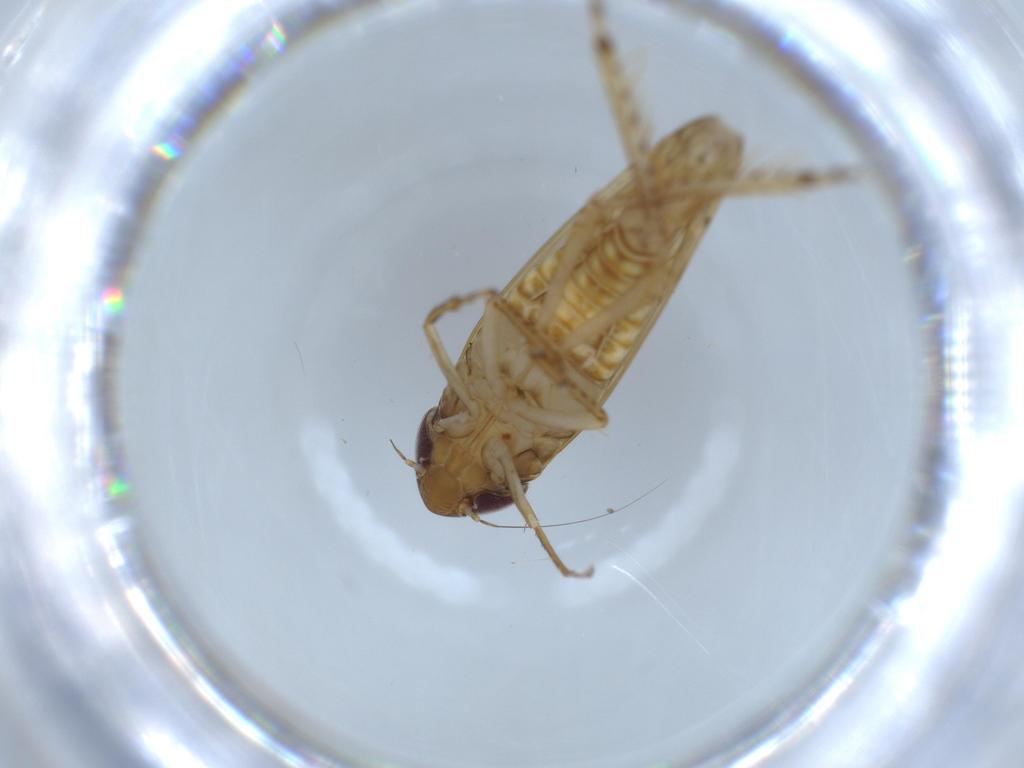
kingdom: Animalia
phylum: Arthropoda
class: Insecta
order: Hemiptera
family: Cicadellidae
